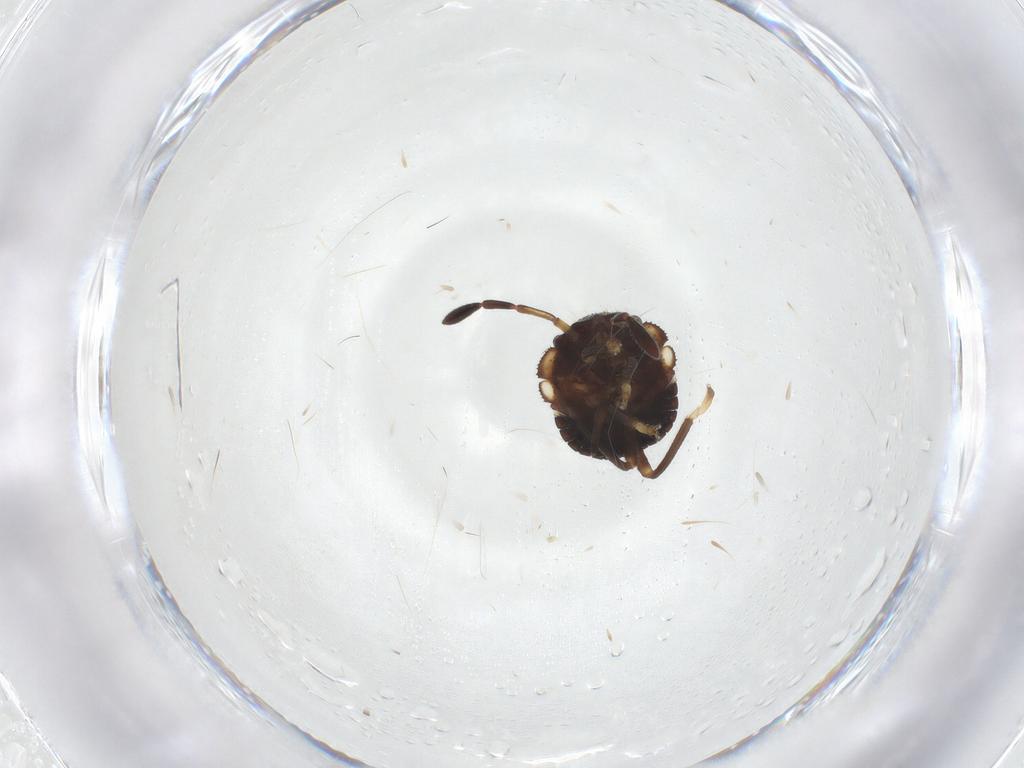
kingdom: Animalia
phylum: Arthropoda
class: Insecta
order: Hemiptera
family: Pentatomidae
